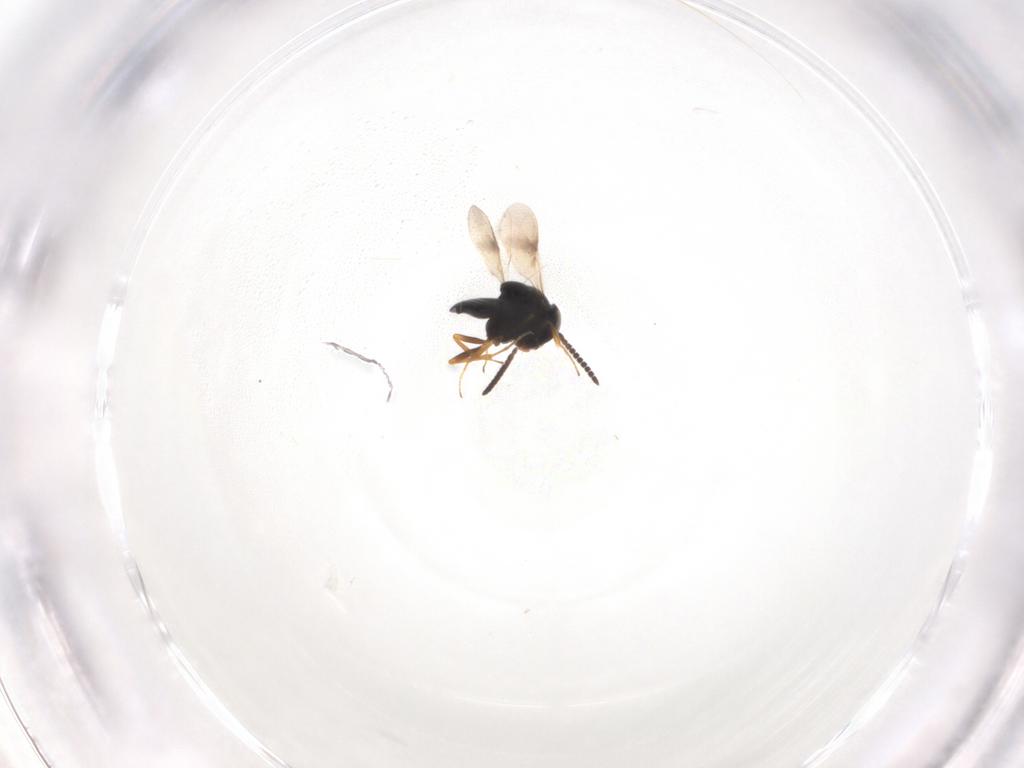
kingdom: Animalia
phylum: Arthropoda
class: Insecta
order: Hymenoptera
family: Scelionidae
